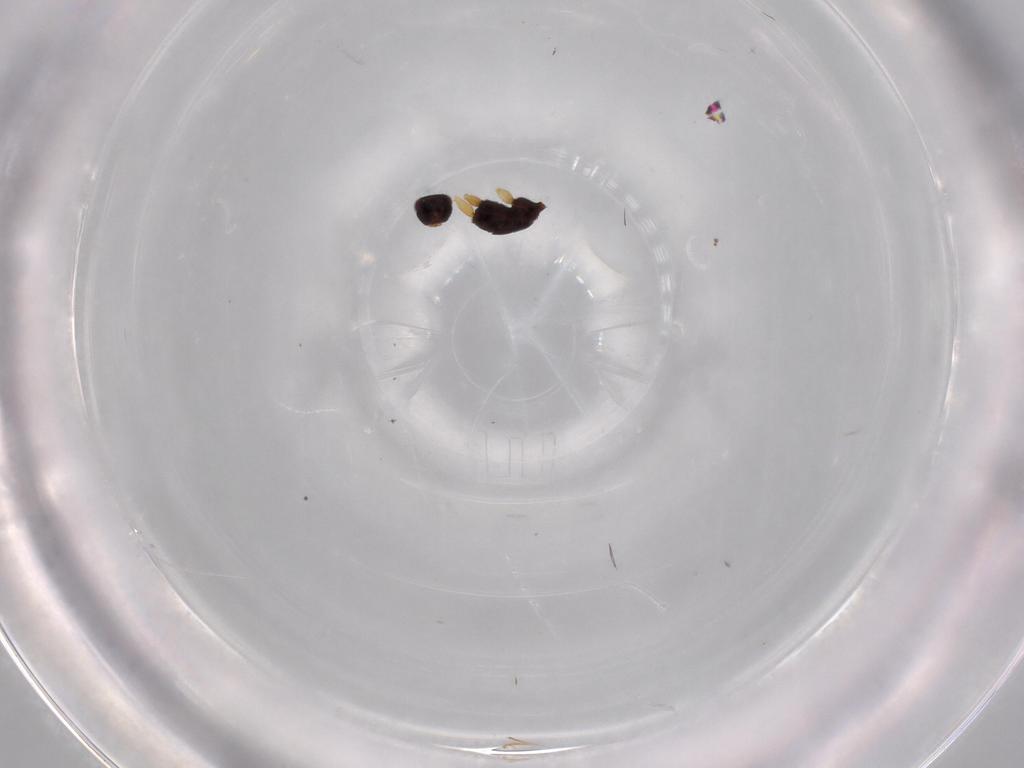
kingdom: Animalia
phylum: Arthropoda
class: Insecta
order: Hymenoptera
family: Mymaridae
